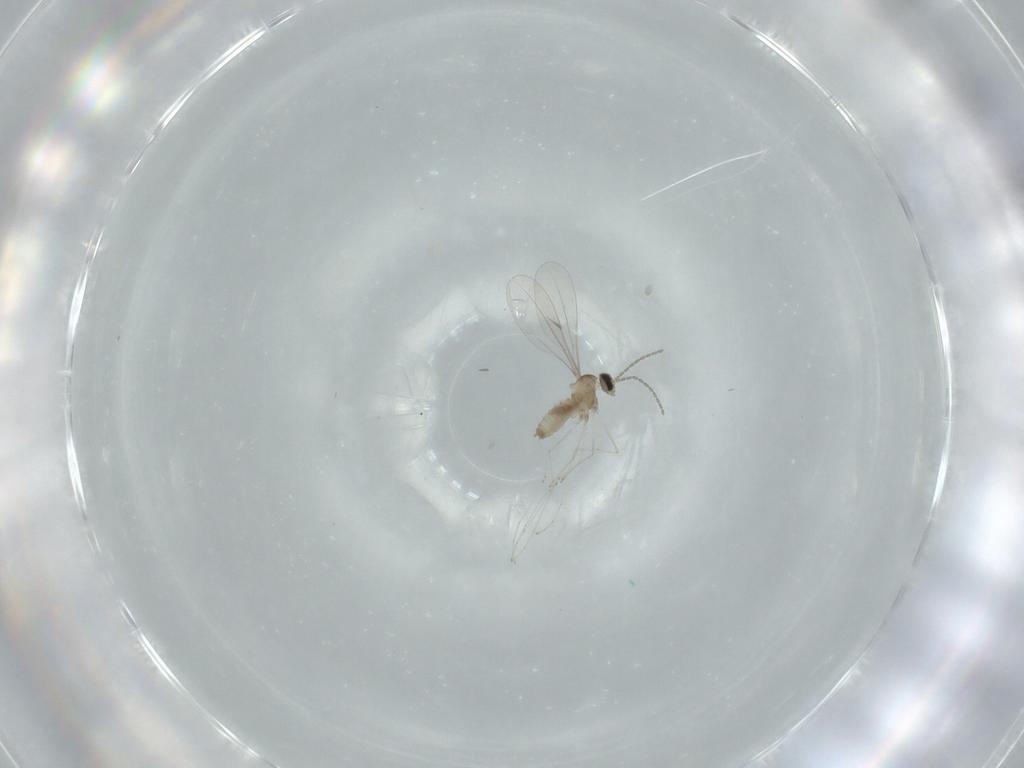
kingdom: Animalia
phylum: Arthropoda
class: Insecta
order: Diptera
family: Cecidomyiidae
